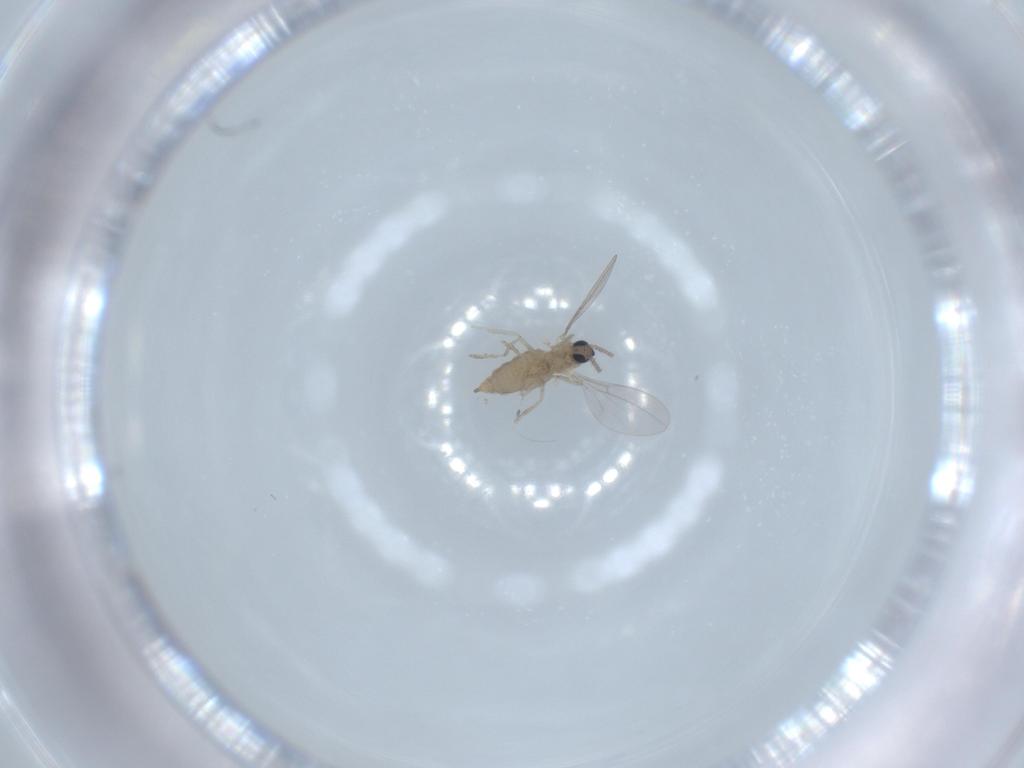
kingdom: Animalia
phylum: Arthropoda
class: Insecta
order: Diptera
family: Cecidomyiidae
